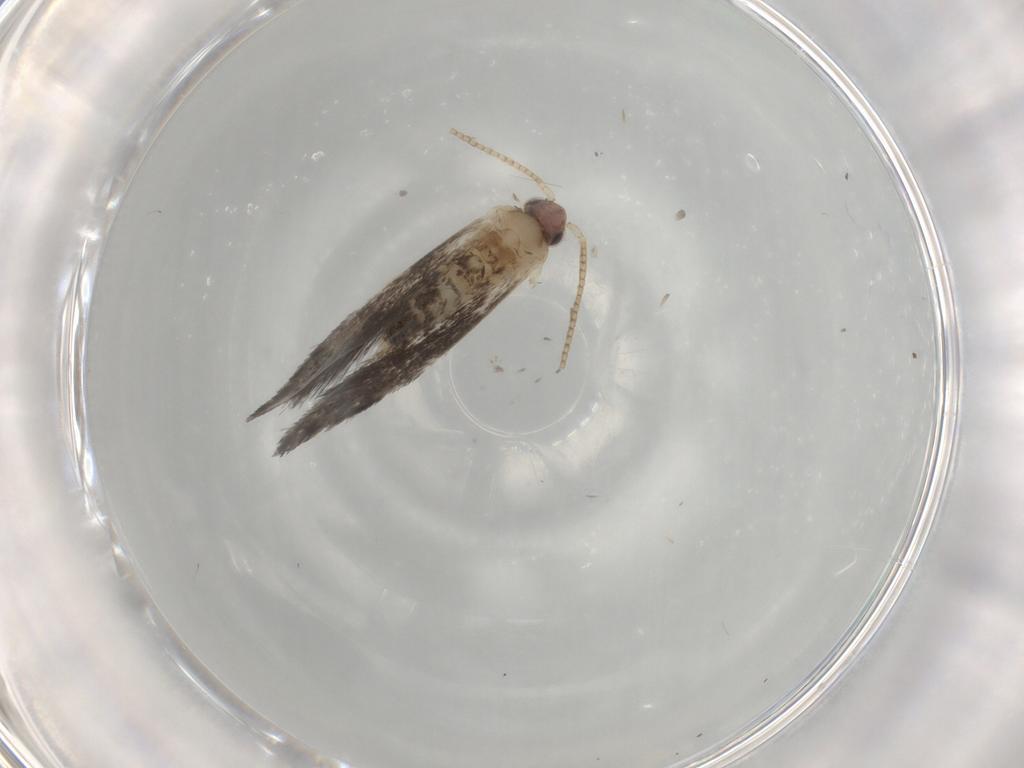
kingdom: Animalia
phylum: Arthropoda
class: Insecta
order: Lepidoptera
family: Tineidae
